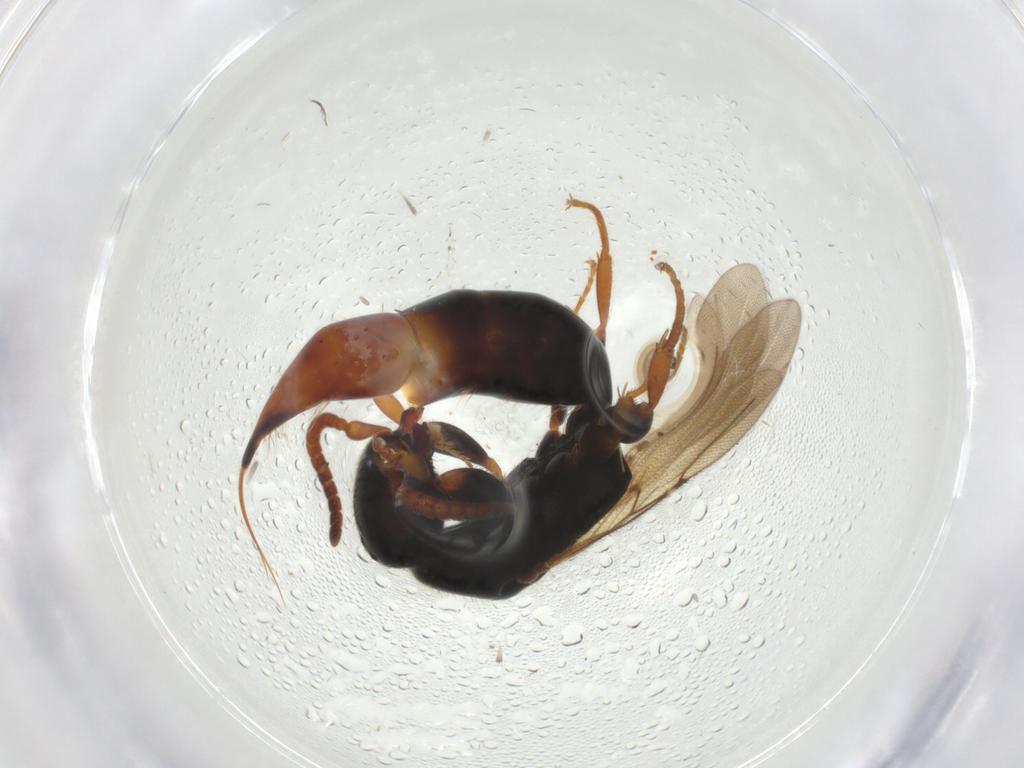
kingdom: Animalia
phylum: Arthropoda
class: Insecta
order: Hymenoptera
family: Bethylidae
